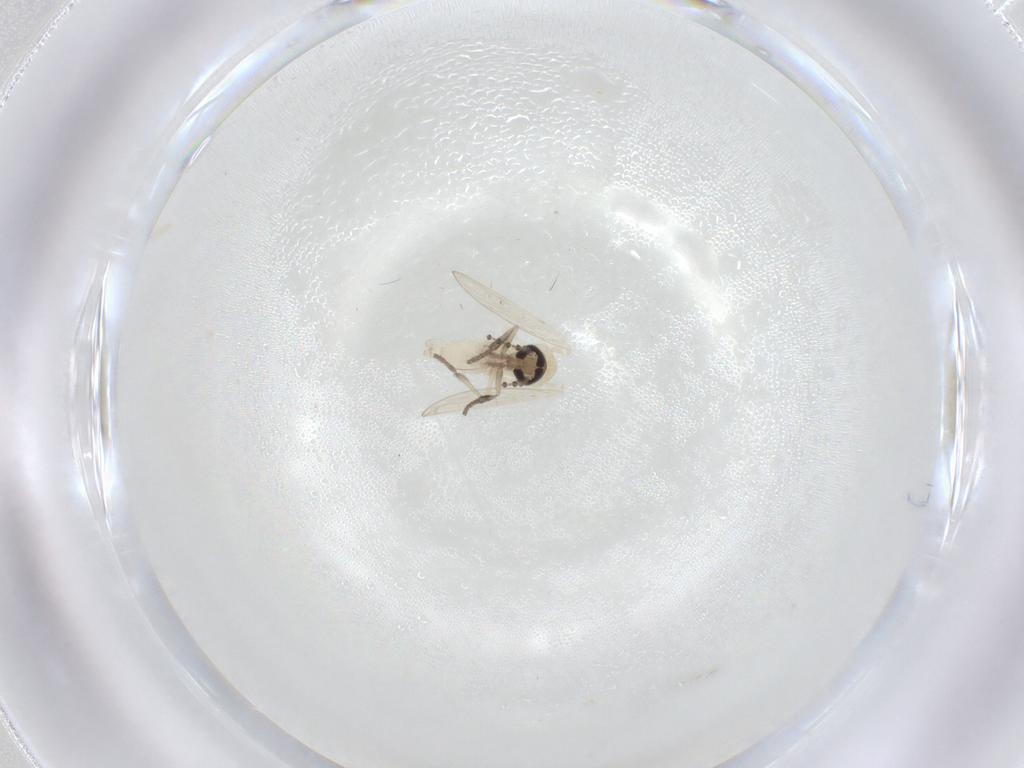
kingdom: Animalia
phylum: Arthropoda
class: Insecta
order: Diptera
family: Psychodidae
